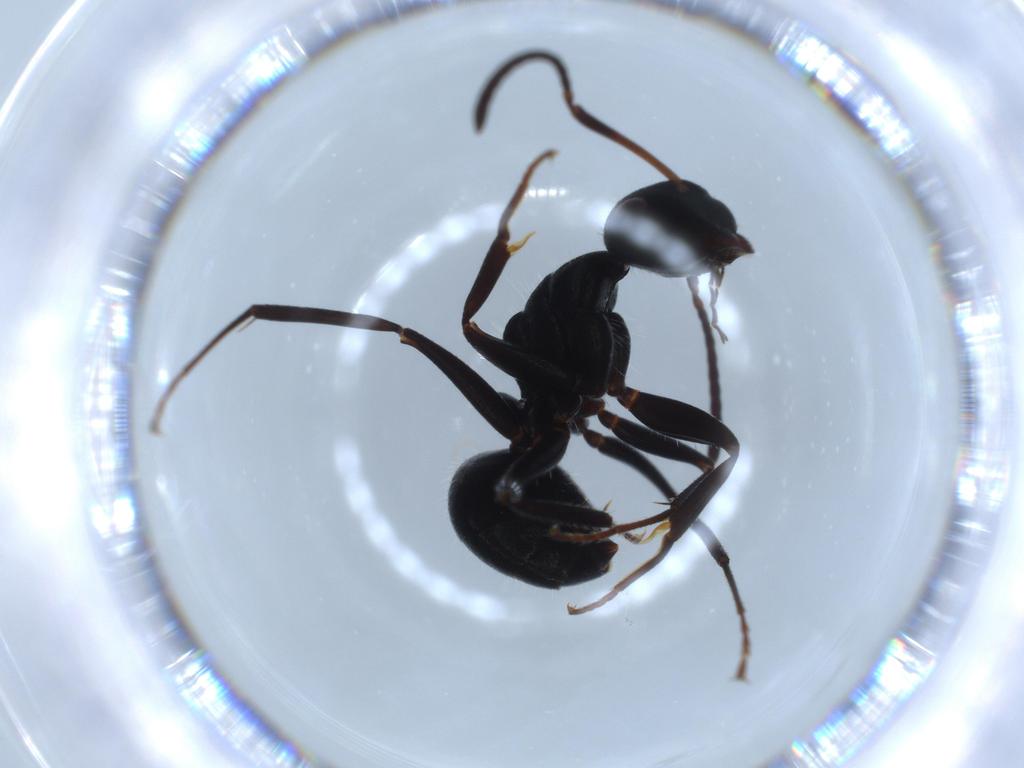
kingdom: Animalia
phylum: Arthropoda
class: Insecta
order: Hymenoptera
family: Formicidae
